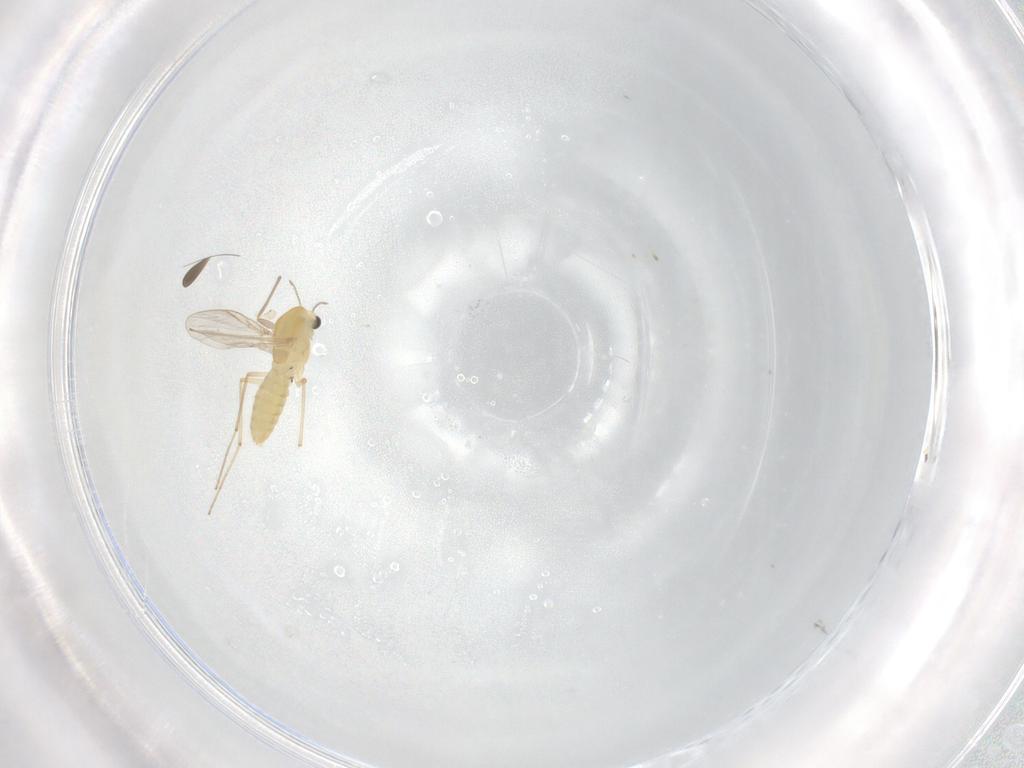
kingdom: Animalia
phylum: Arthropoda
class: Insecta
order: Diptera
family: Chironomidae
